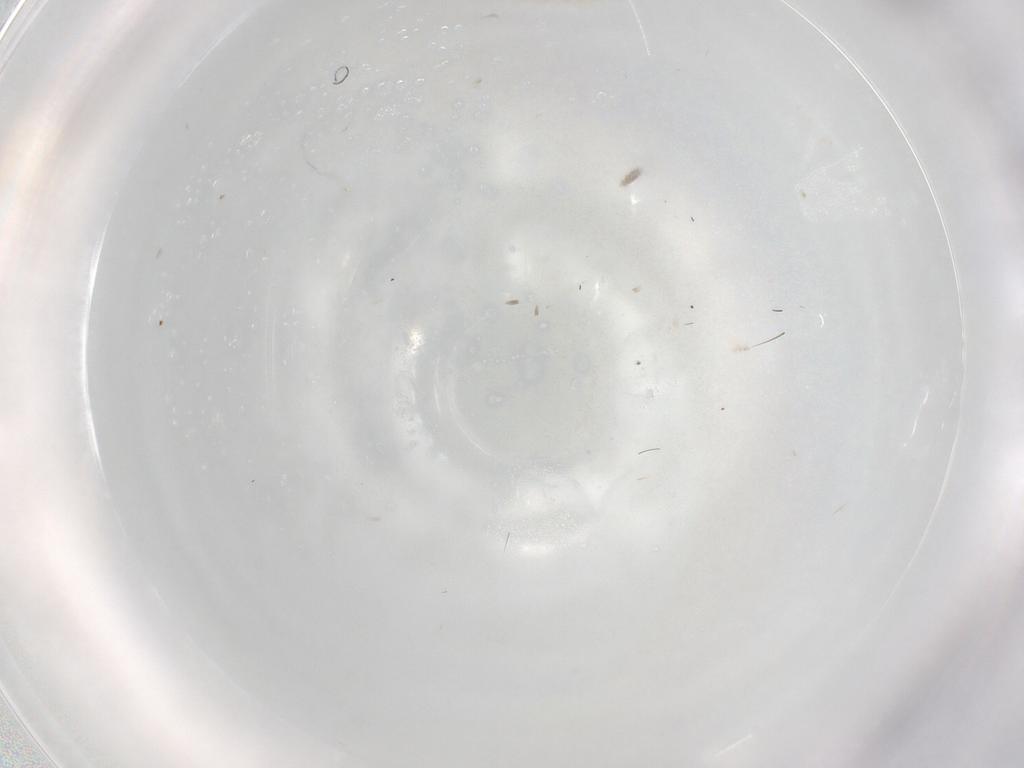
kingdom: Animalia
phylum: Arthropoda
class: Insecta
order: Hemiptera
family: Cicadellidae
